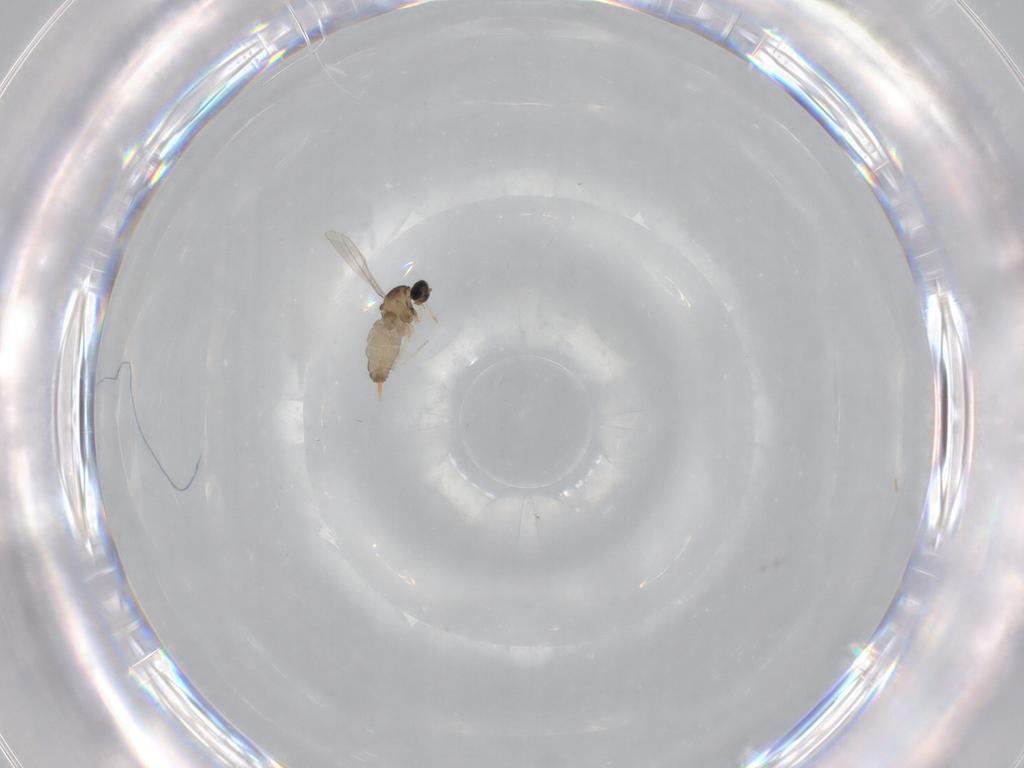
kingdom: Animalia
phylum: Arthropoda
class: Insecta
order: Diptera
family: Cecidomyiidae
